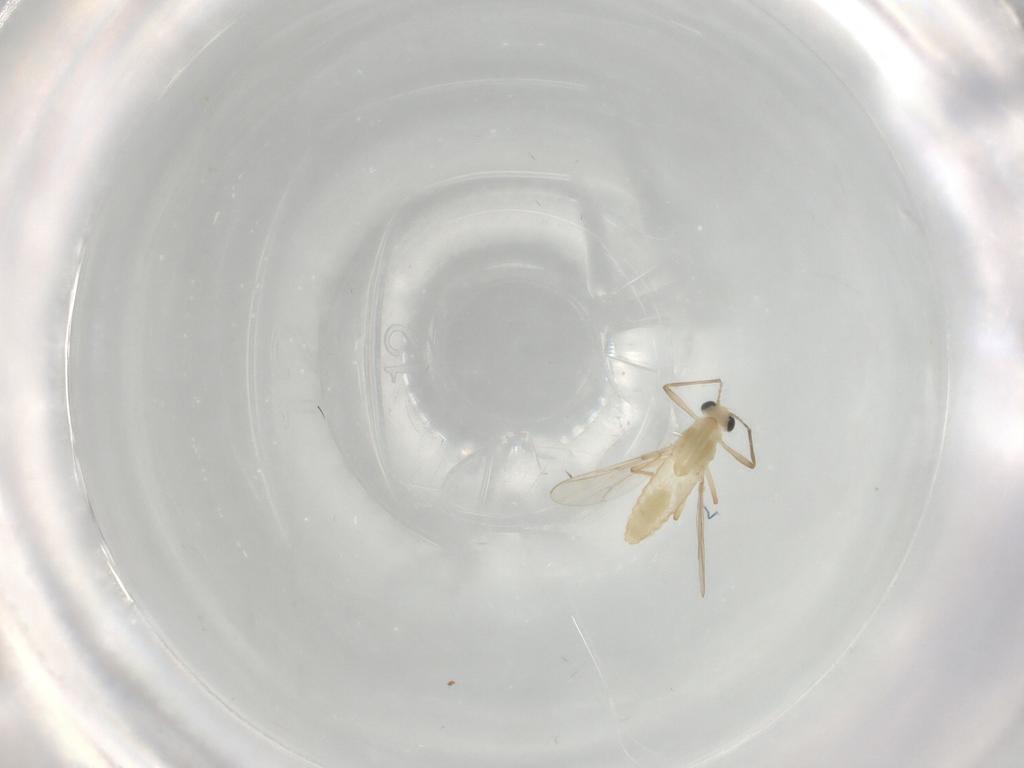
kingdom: Animalia
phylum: Arthropoda
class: Insecta
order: Diptera
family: Limoniidae
